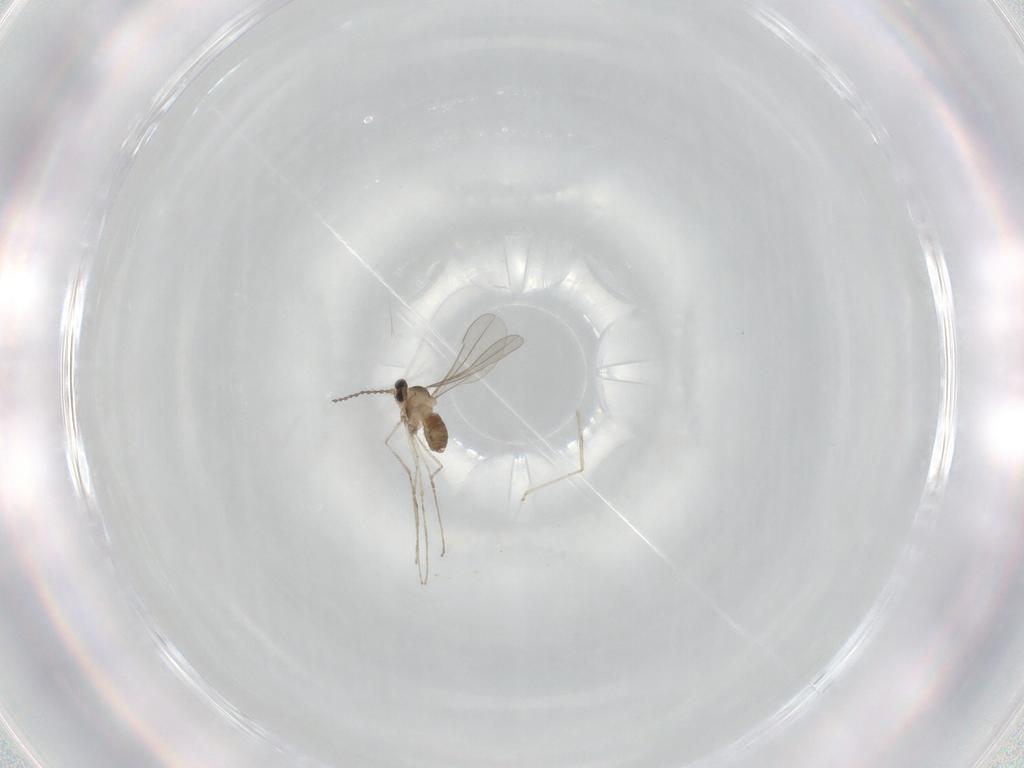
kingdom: Animalia
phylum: Arthropoda
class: Insecta
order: Diptera
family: Cecidomyiidae
